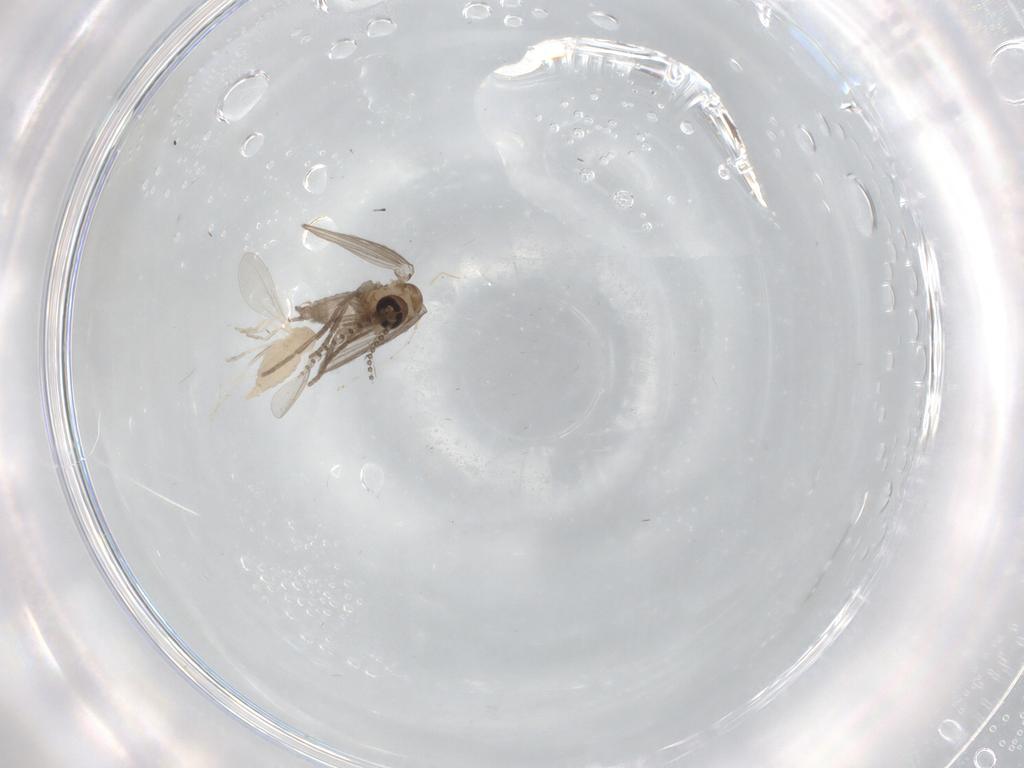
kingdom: Animalia
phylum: Arthropoda
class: Insecta
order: Diptera
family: Cecidomyiidae
